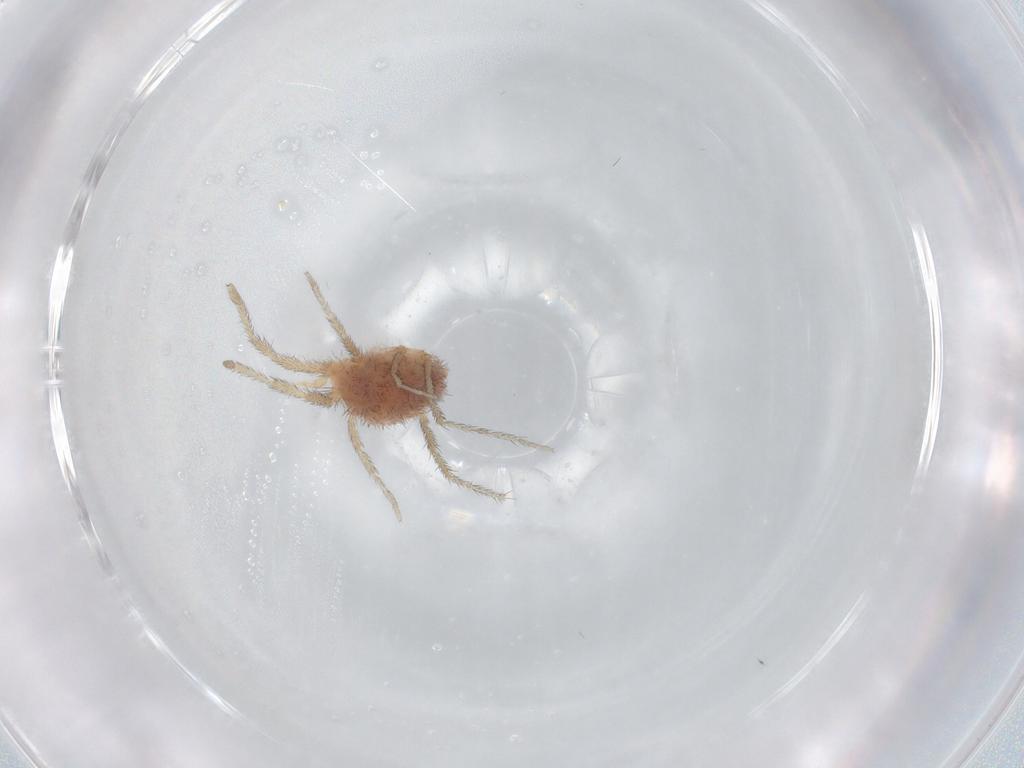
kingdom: Animalia
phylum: Arthropoda
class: Arachnida
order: Trombidiformes
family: Erythraeidae
